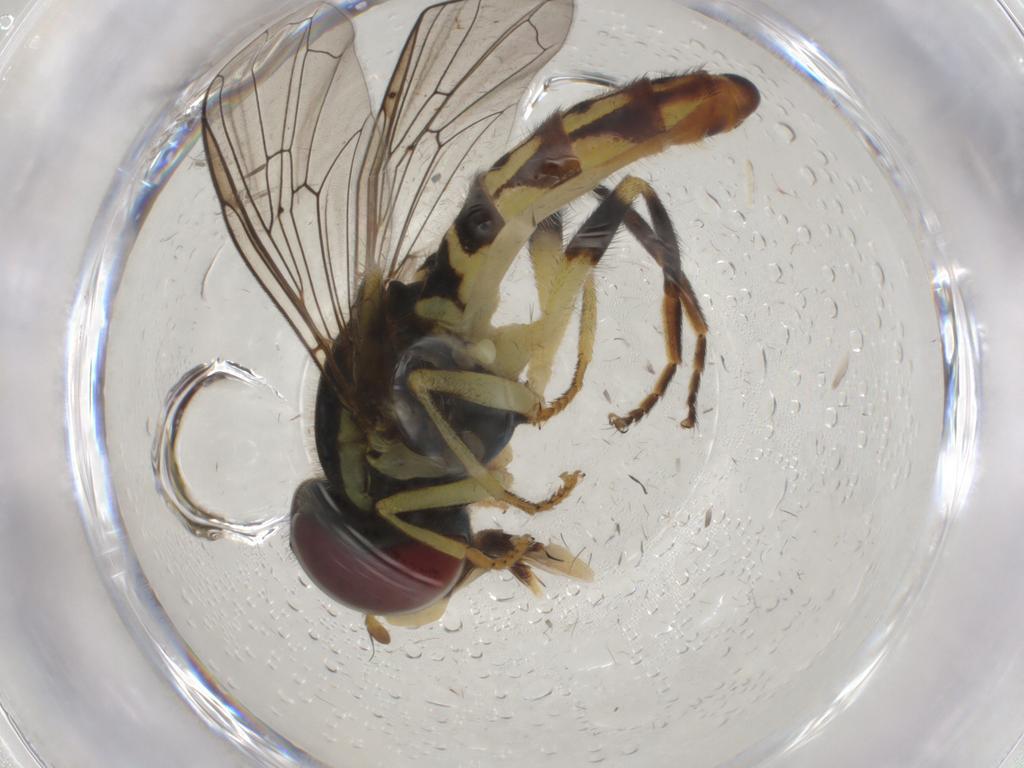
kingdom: Animalia
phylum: Arthropoda
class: Insecta
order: Diptera
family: Syrphidae
